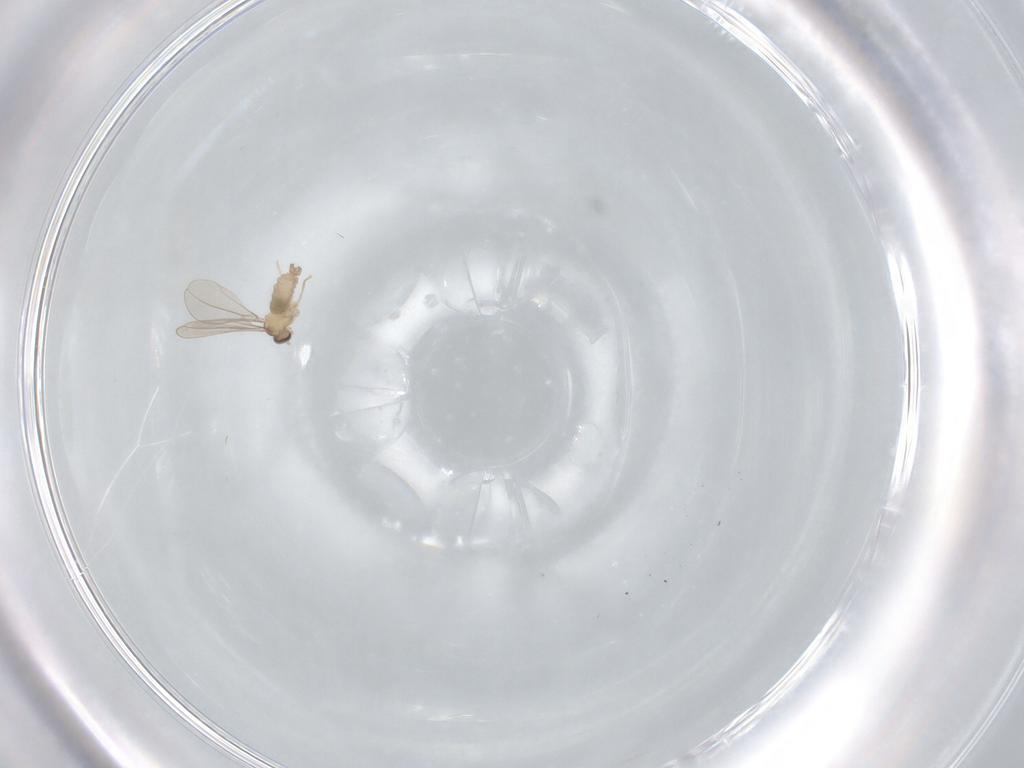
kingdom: Animalia
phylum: Arthropoda
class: Insecta
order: Diptera
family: Cecidomyiidae
